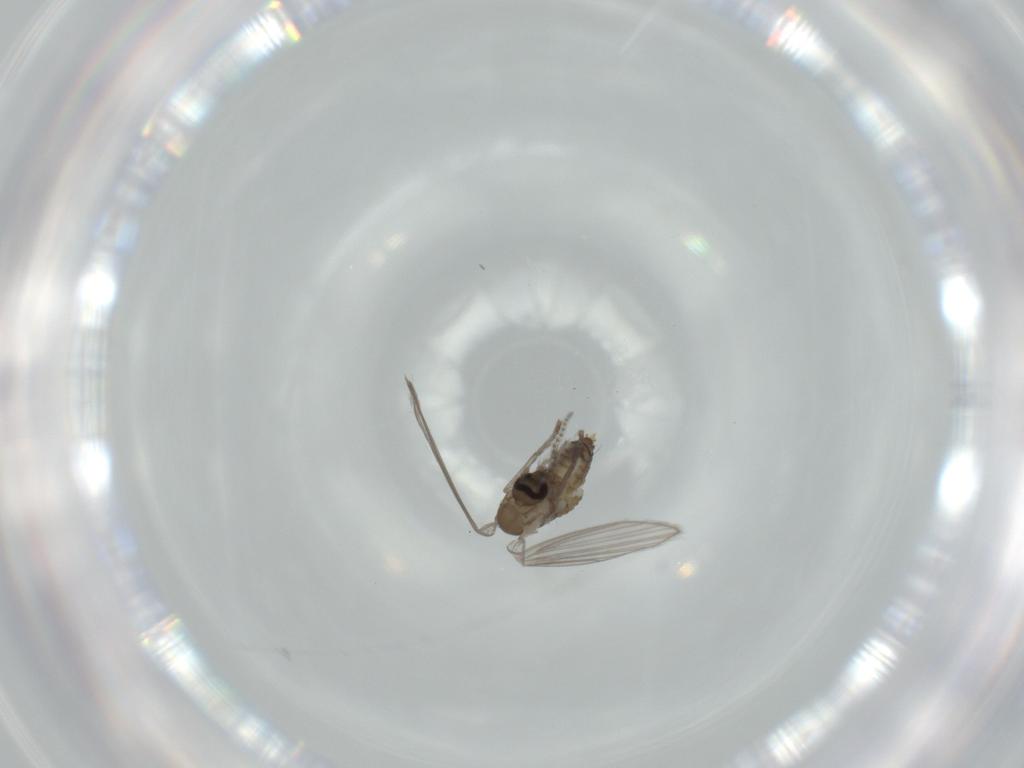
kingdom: Animalia
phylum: Arthropoda
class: Insecta
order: Diptera
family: Psychodidae
